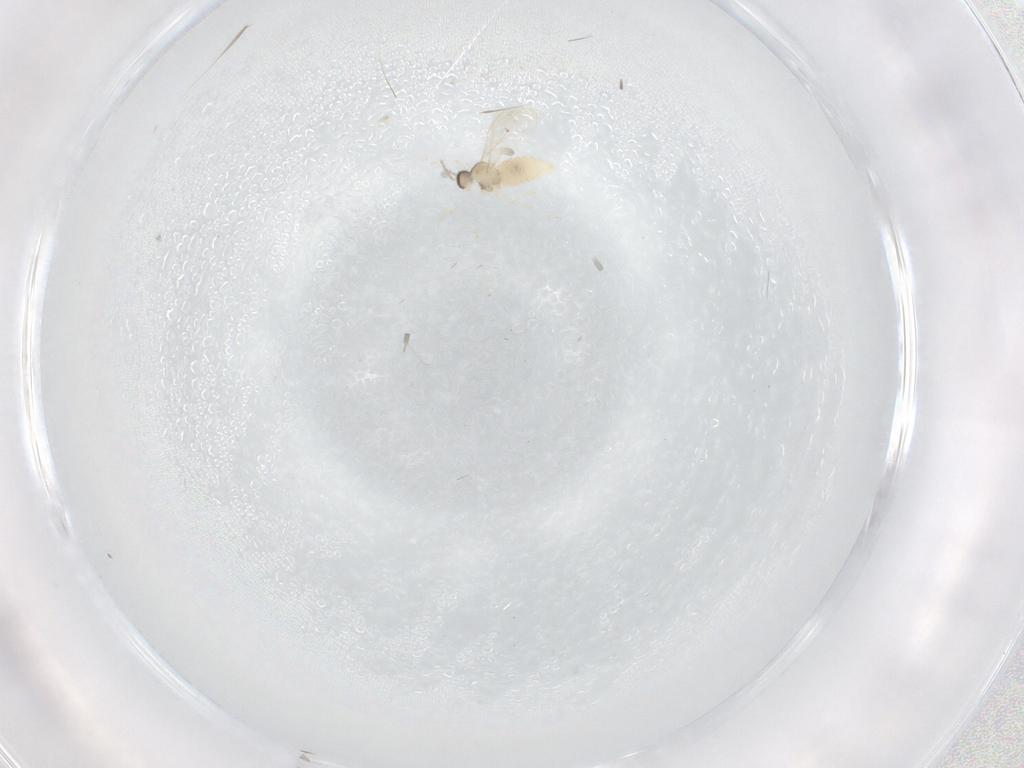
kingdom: Animalia
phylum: Arthropoda
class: Insecta
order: Diptera
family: Cecidomyiidae
